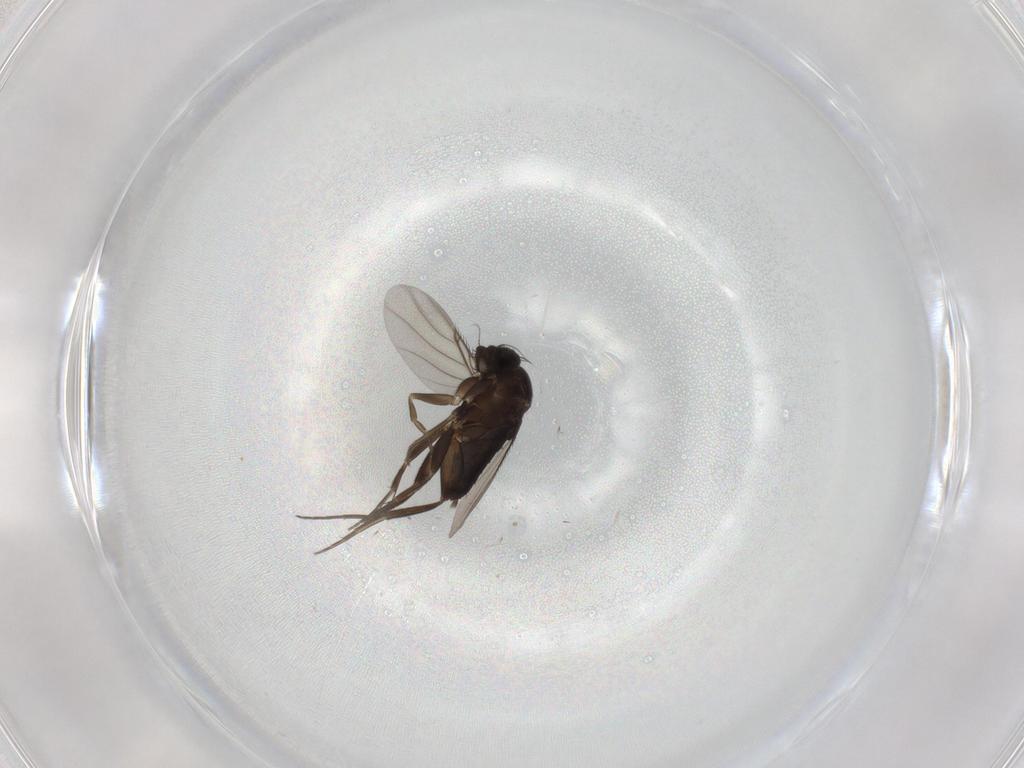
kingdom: Animalia
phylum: Arthropoda
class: Insecta
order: Diptera
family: Phoridae
